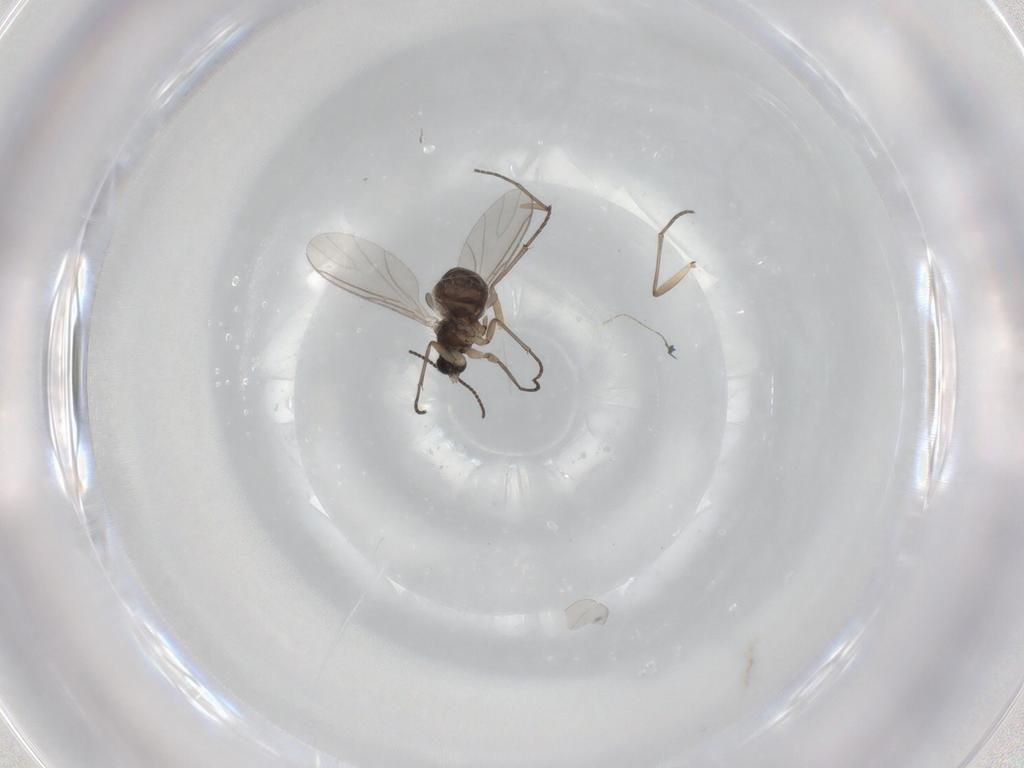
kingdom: Animalia
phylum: Arthropoda
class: Insecta
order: Diptera
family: Sciaridae
